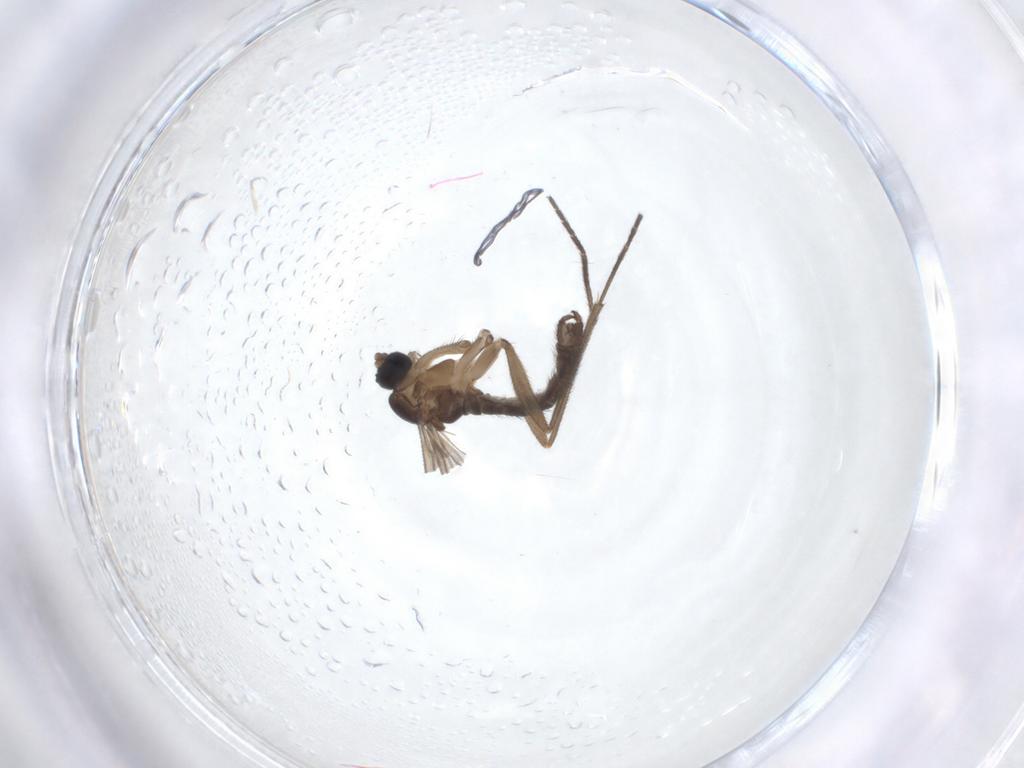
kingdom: Animalia
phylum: Arthropoda
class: Insecta
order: Diptera
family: Sciaridae
